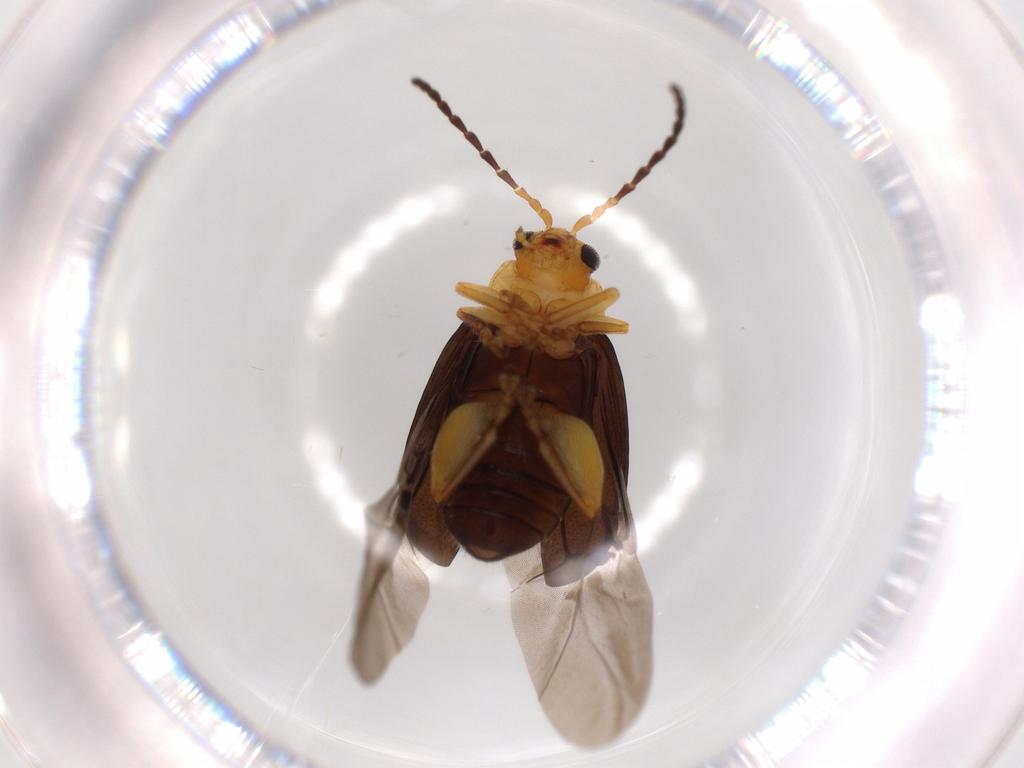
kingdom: Animalia
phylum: Arthropoda
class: Insecta
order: Coleoptera
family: Chrysomelidae
